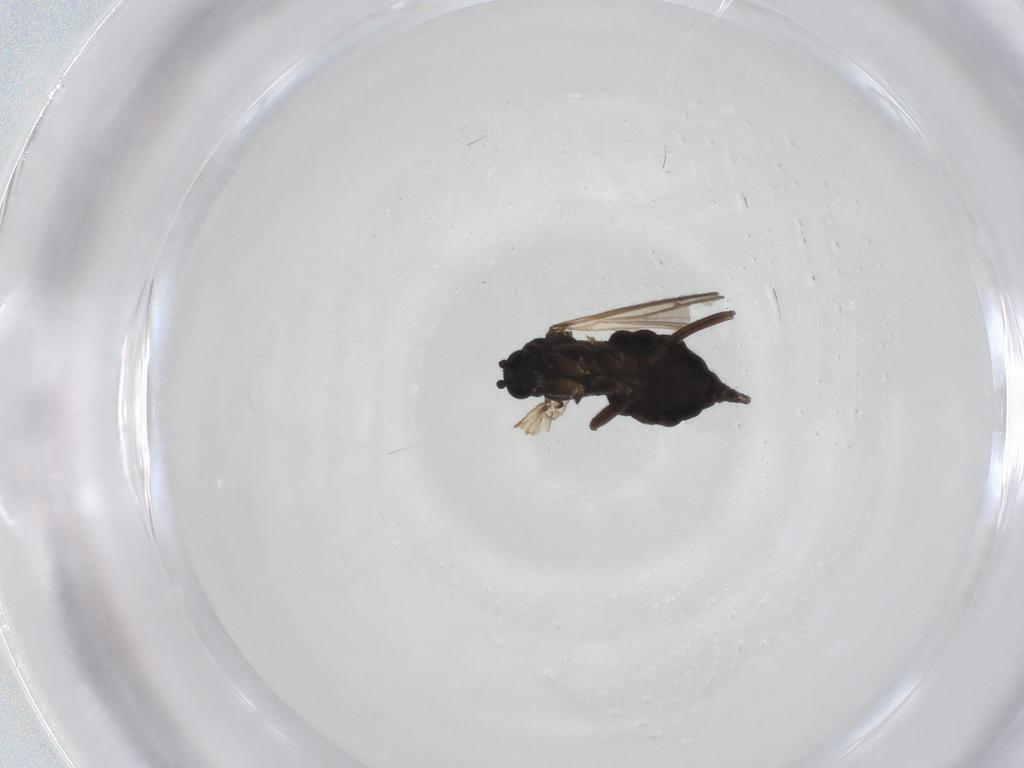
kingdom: Animalia
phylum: Arthropoda
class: Insecta
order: Diptera
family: Sciaridae
